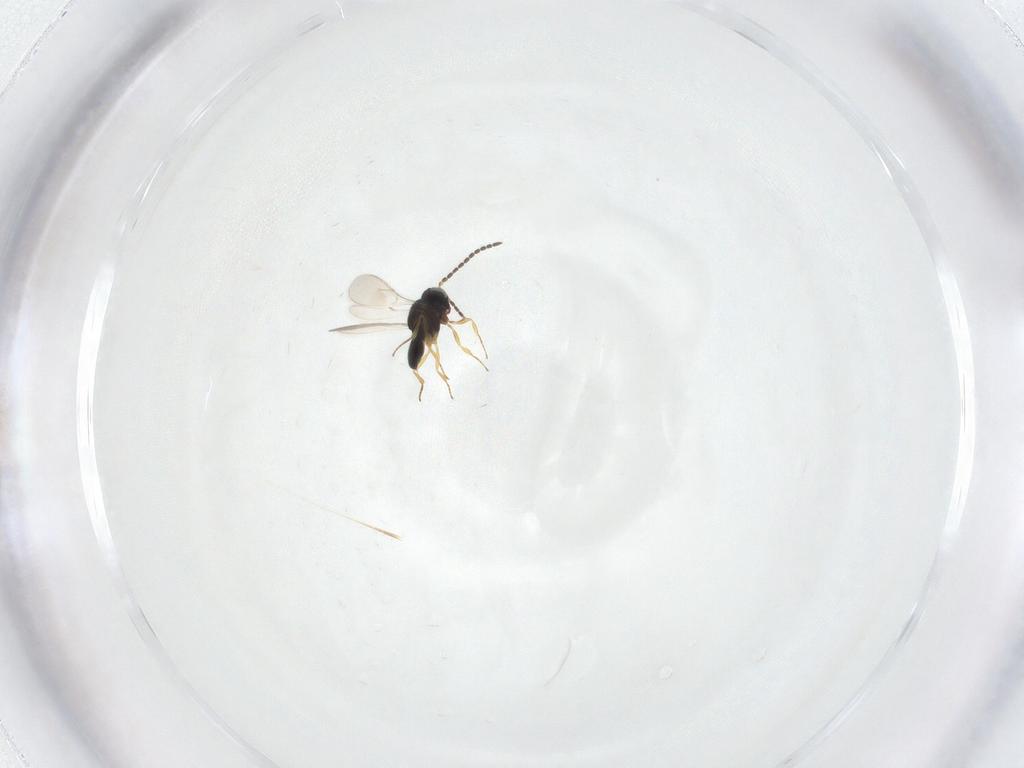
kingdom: Animalia
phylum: Arthropoda
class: Insecta
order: Hymenoptera
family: Scelionidae
